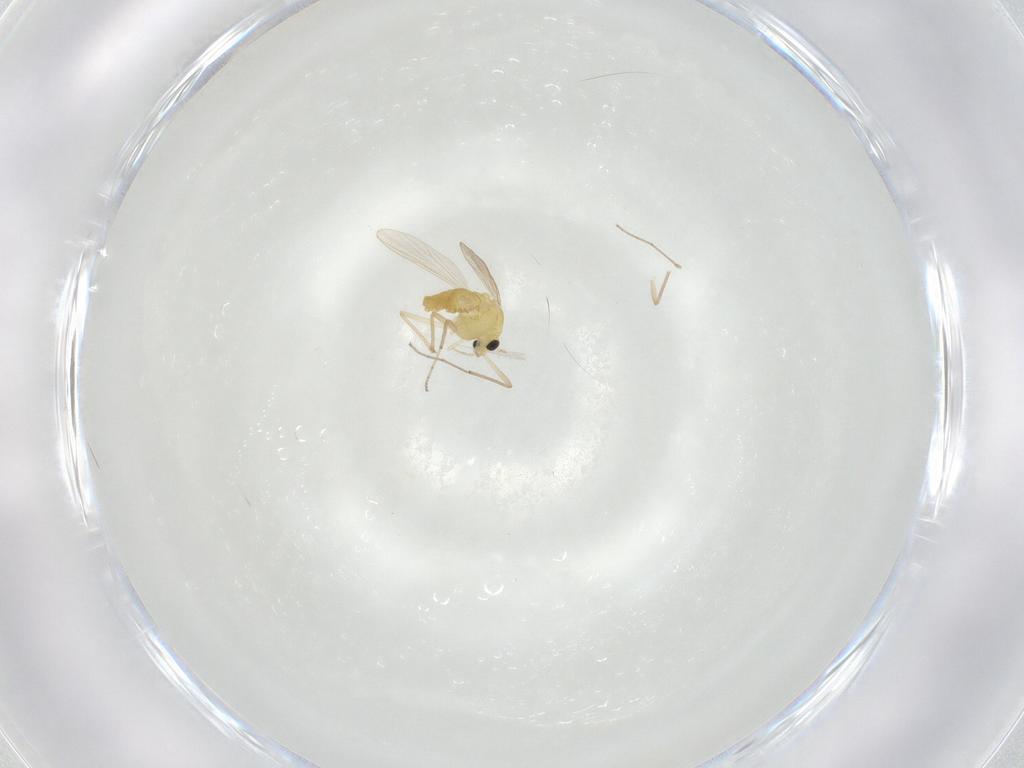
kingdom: Animalia
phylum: Arthropoda
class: Insecta
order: Diptera
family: Chironomidae
